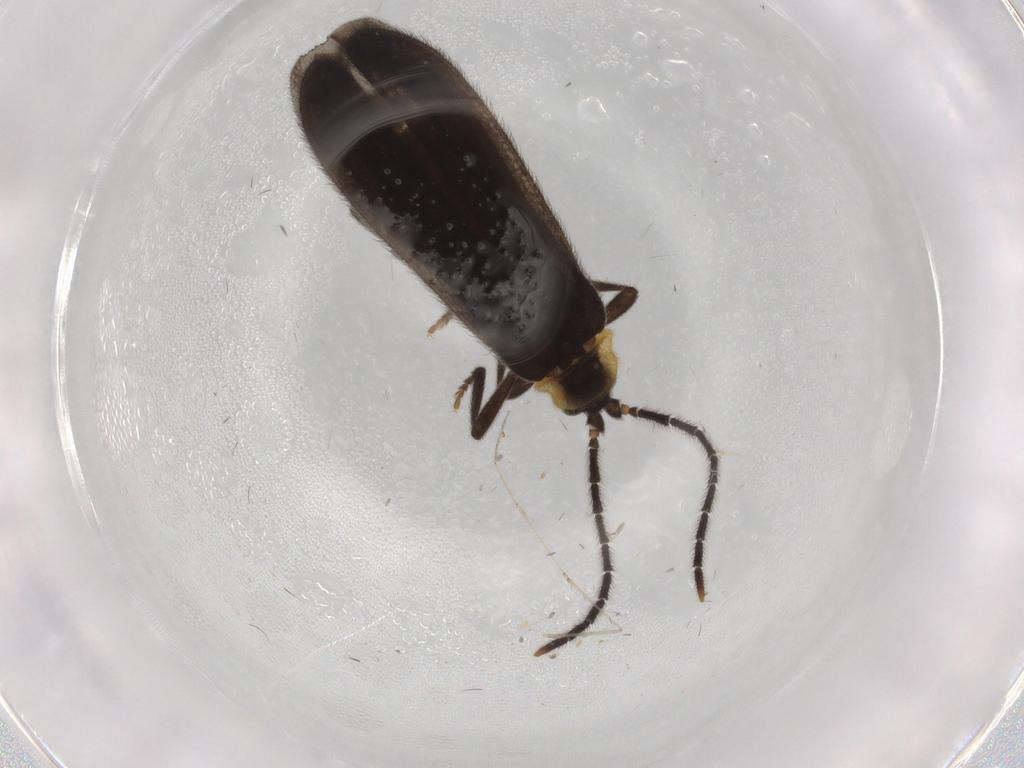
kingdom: Animalia
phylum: Arthropoda
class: Insecta
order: Coleoptera
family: Lycidae
